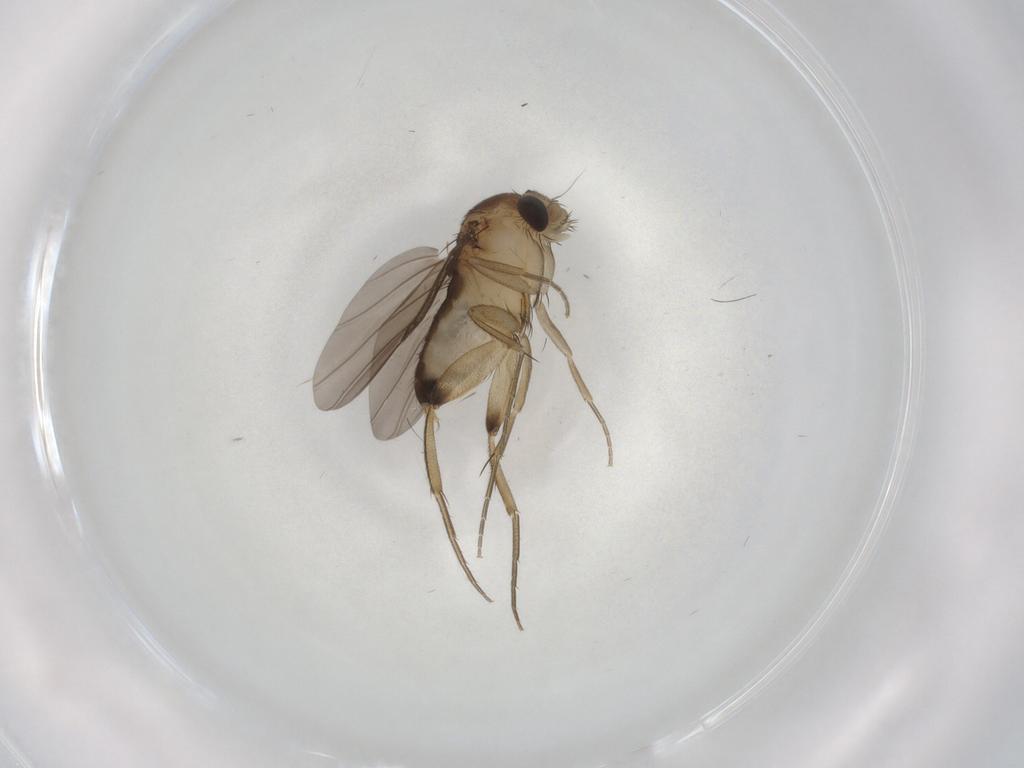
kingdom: Animalia
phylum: Arthropoda
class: Insecta
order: Diptera
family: Phoridae
